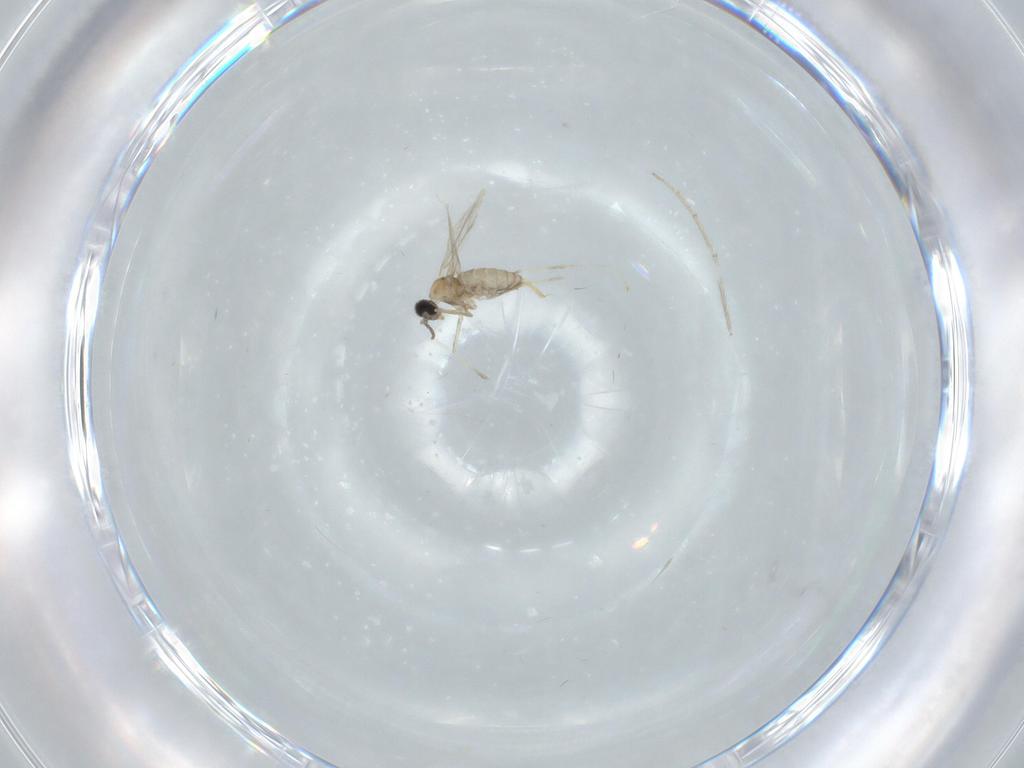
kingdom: Animalia
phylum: Arthropoda
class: Insecta
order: Diptera
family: Cecidomyiidae
